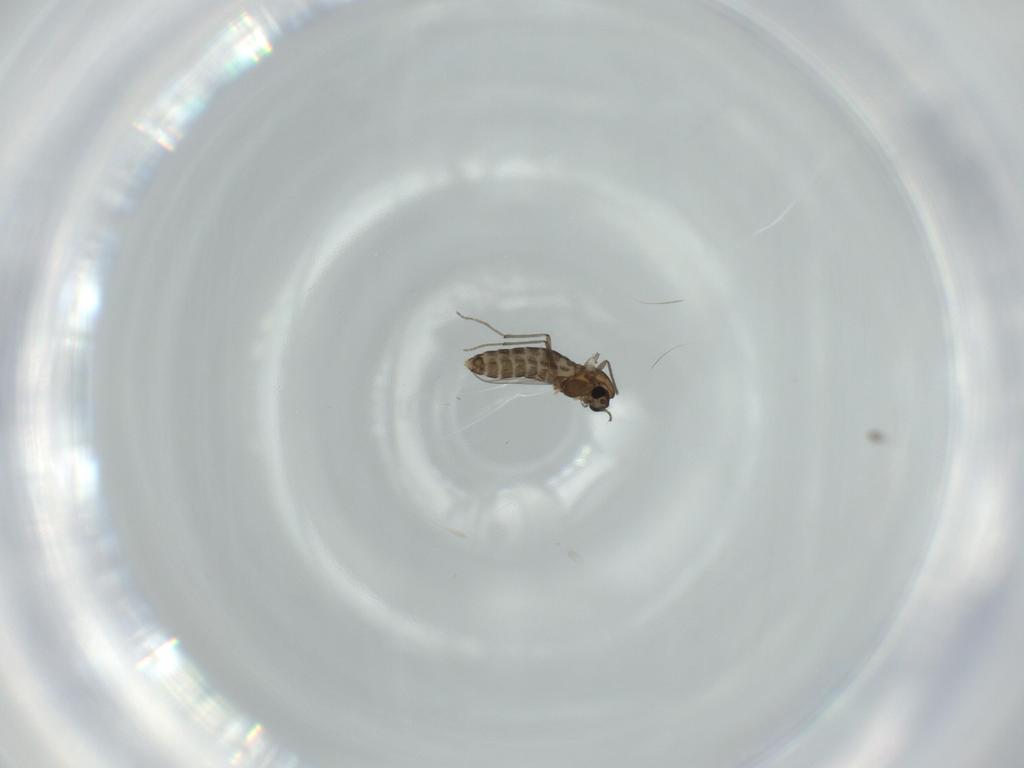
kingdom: Animalia
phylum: Arthropoda
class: Insecta
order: Diptera
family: Chironomidae
